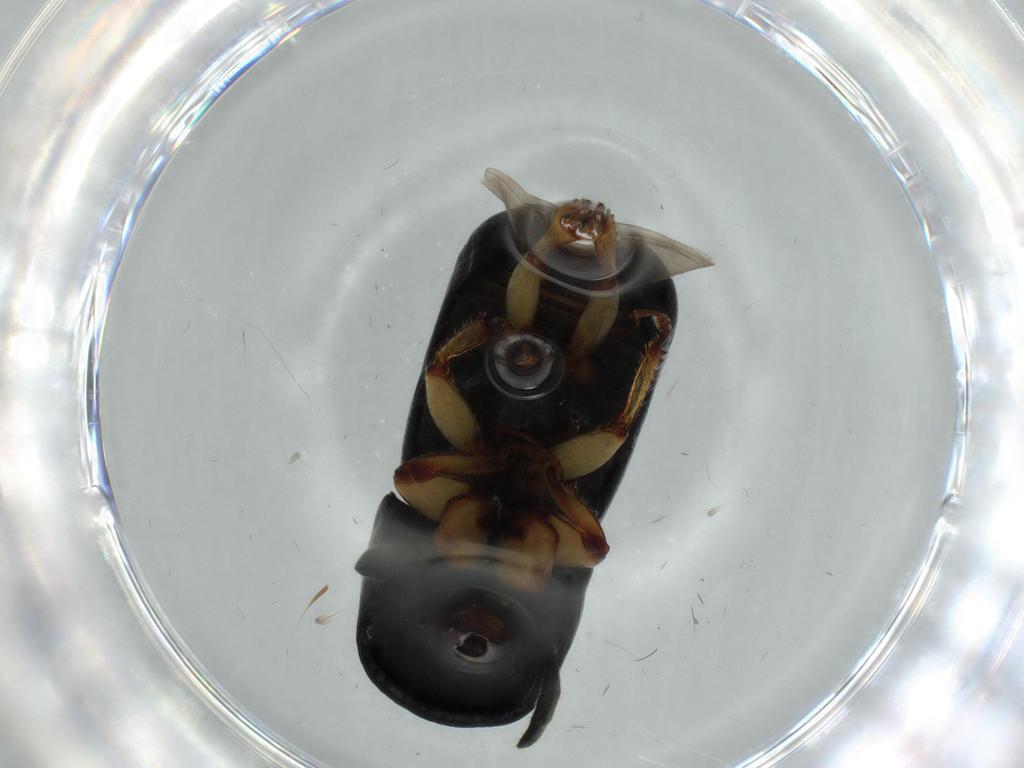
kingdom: Animalia
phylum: Arthropoda
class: Insecta
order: Coleoptera
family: Curculionidae
